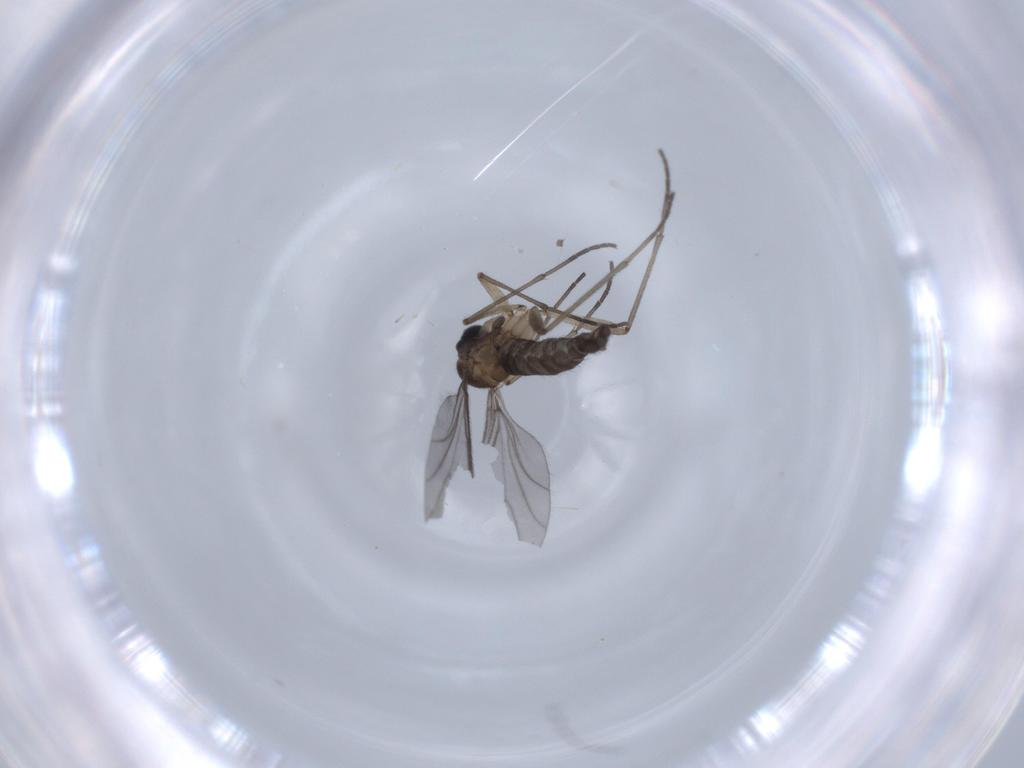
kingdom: Animalia
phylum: Arthropoda
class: Insecta
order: Diptera
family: Sciaridae
